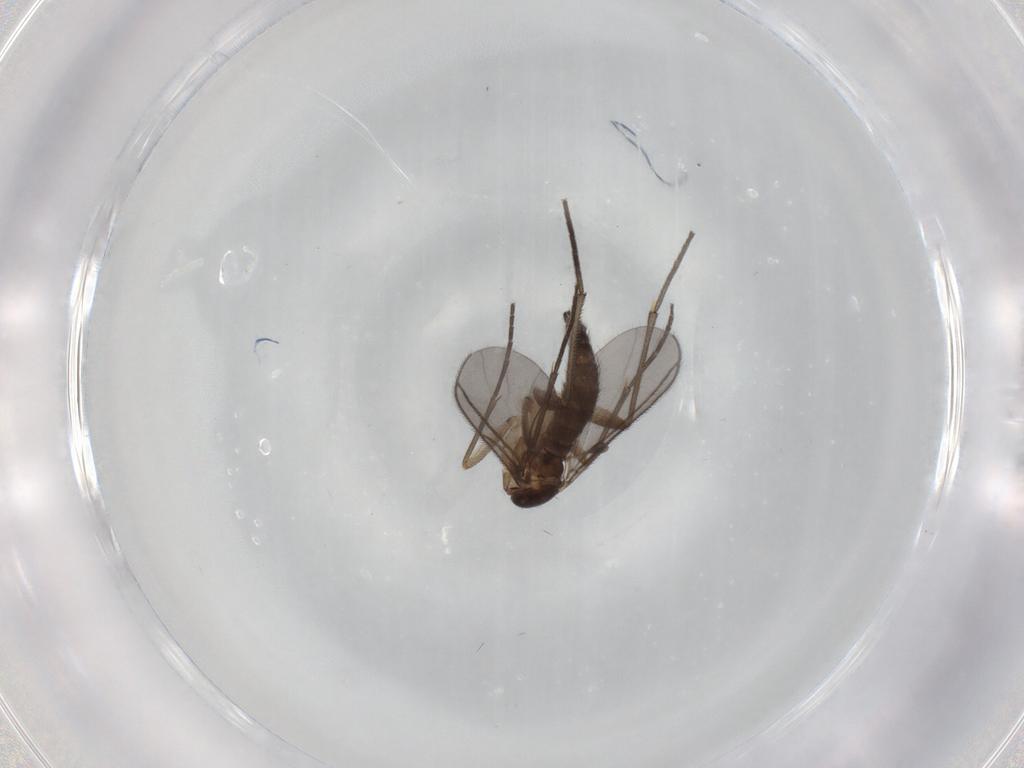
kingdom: Animalia
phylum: Arthropoda
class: Insecta
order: Diptera
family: Sciaridae
